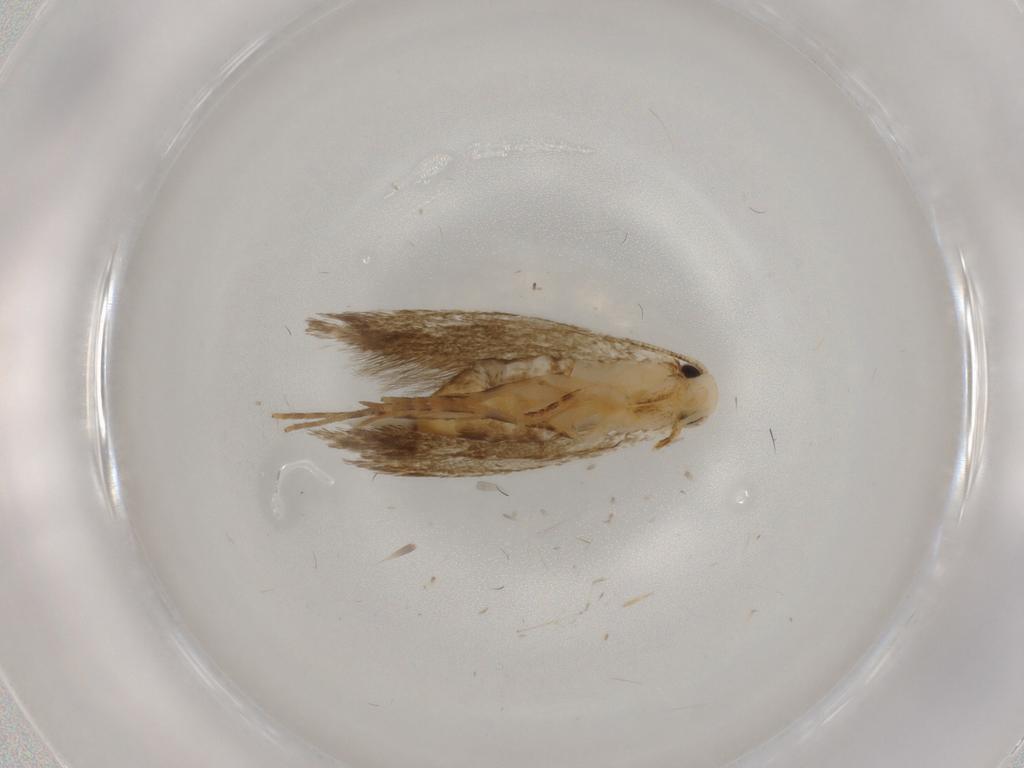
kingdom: Animalia
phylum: Arthropoda
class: Insecta
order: Lepidoptera
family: Tineidae
